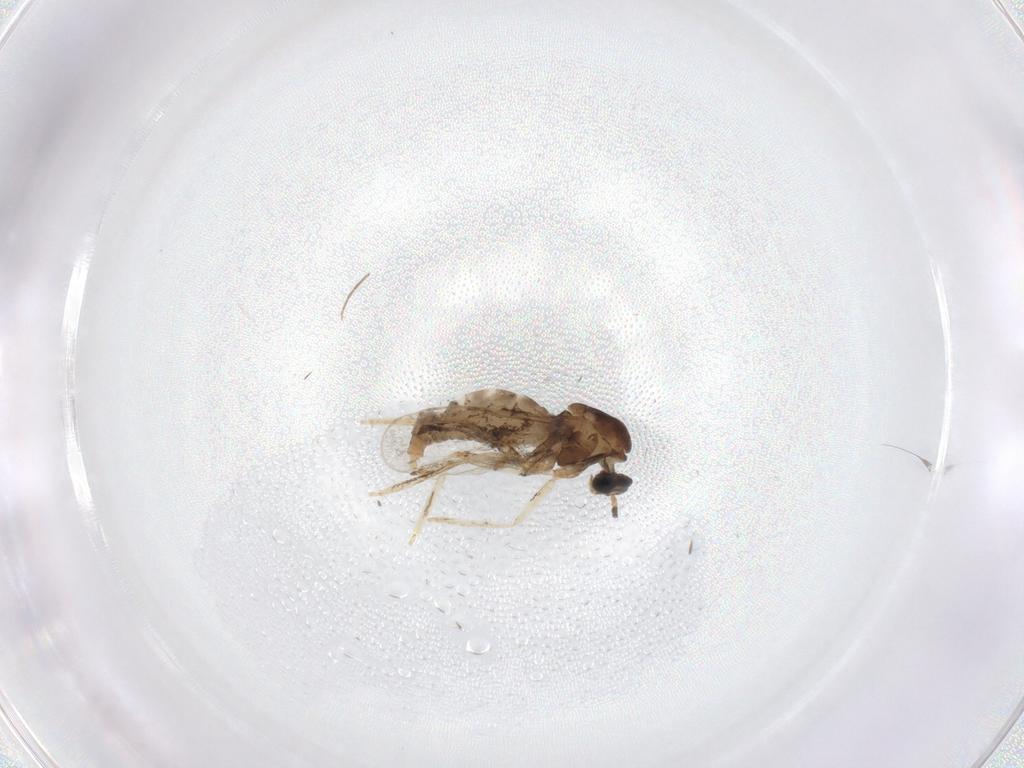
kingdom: Animalia
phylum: Arthropoda
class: Insecta
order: Diptera
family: Cecidomyiidae
